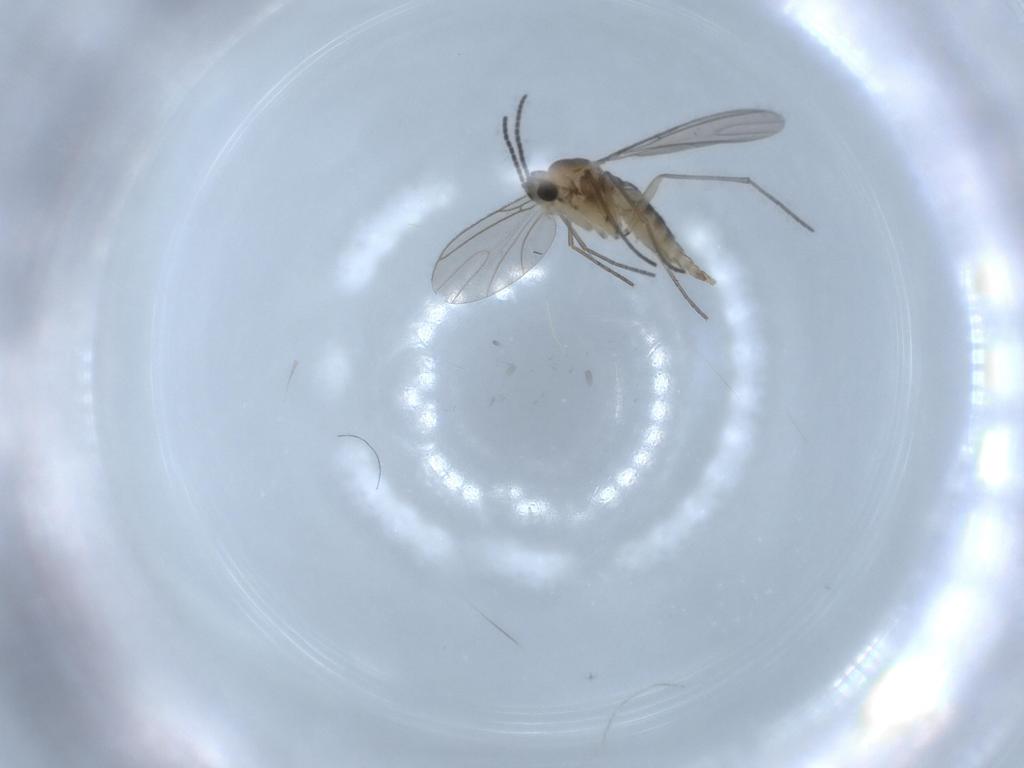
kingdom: Animalia
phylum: Arthropoda
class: Insecta
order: Diptera
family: Sciaridae
